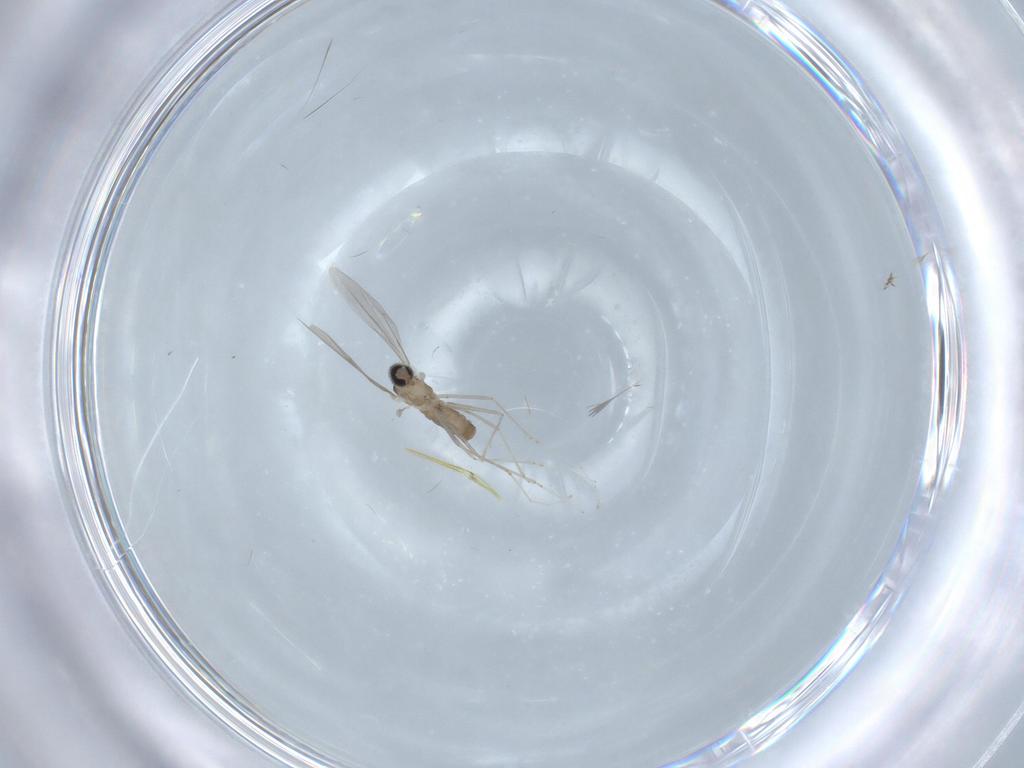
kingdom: Animalia
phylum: Arthropoda
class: Insecta
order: Diptera
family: Cecidomyiidae
